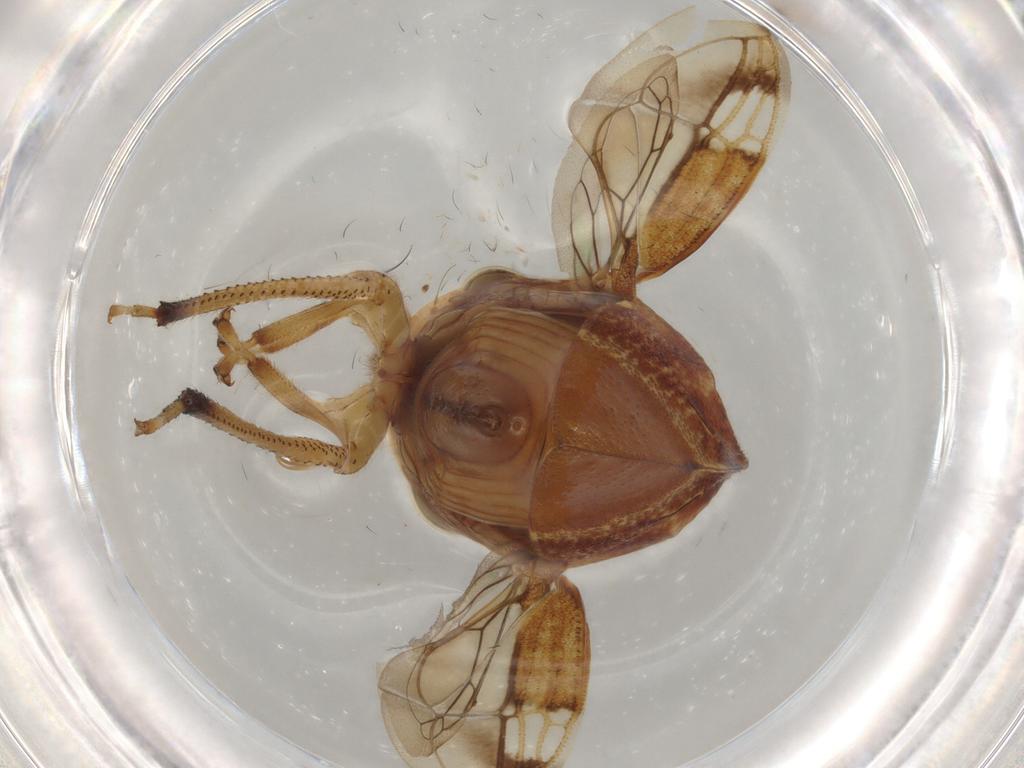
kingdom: Animalia
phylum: Arthropoda
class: Insecta
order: Hemiptera
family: Membracidae
